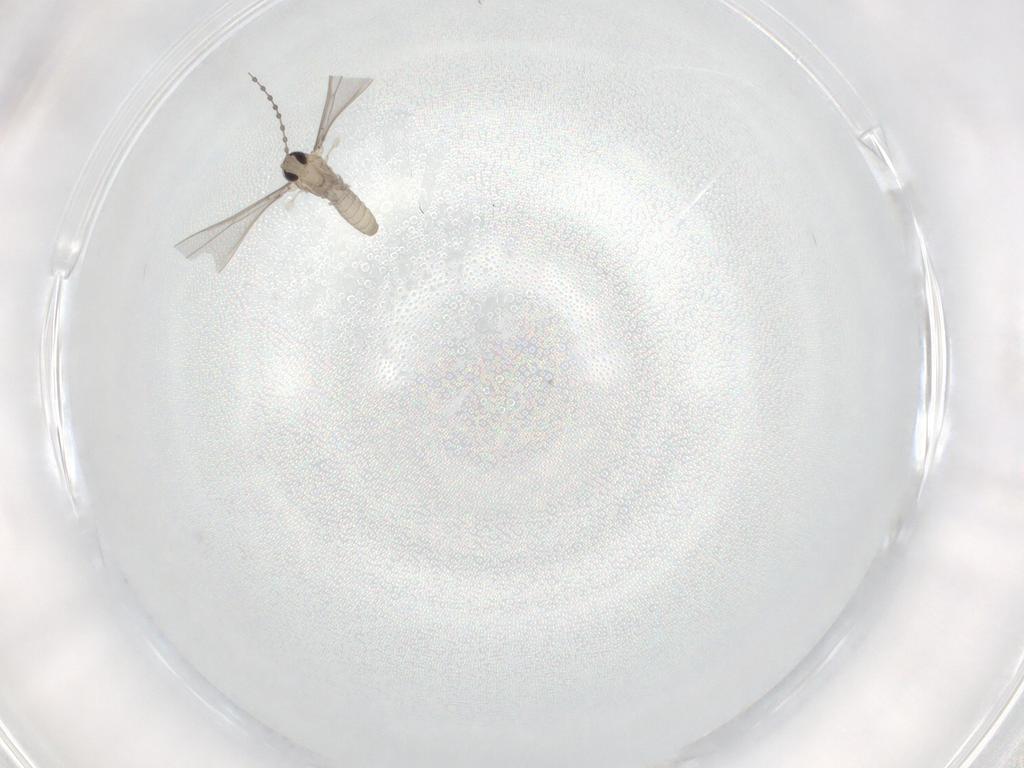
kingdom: Animalia
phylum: Arthropoda
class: Insecta
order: Diptera
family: Cecidomyiidae
